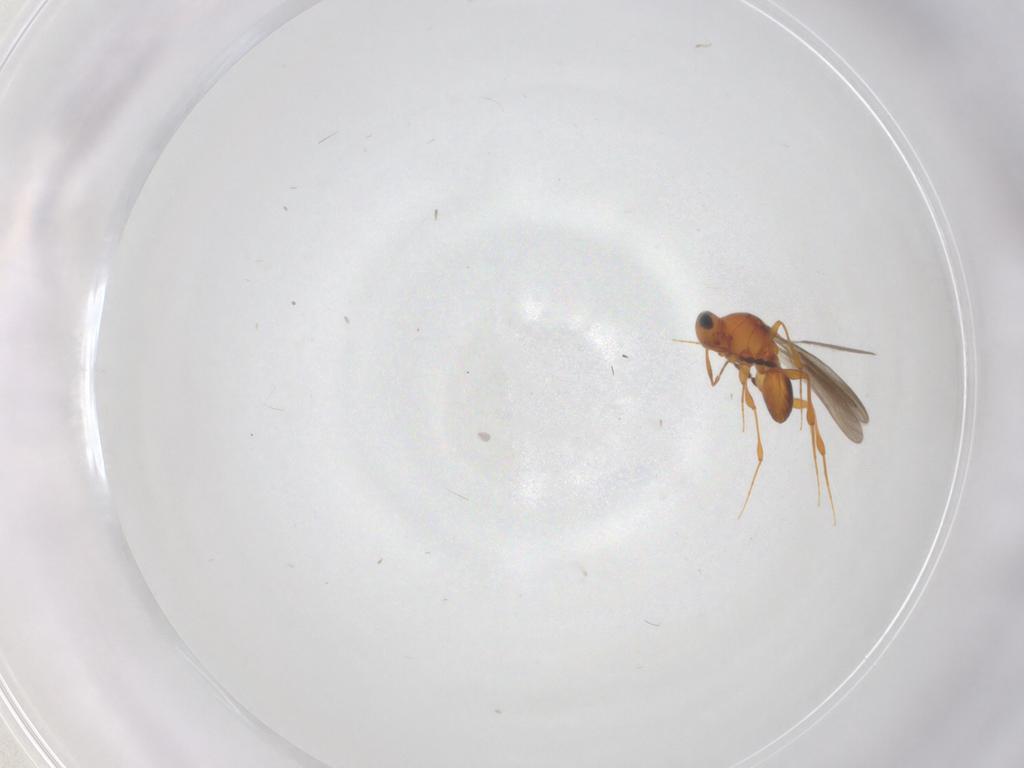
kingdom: Animalia
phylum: Arthropoda
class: Insecta
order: Hymenoptera
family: Platygastridae
